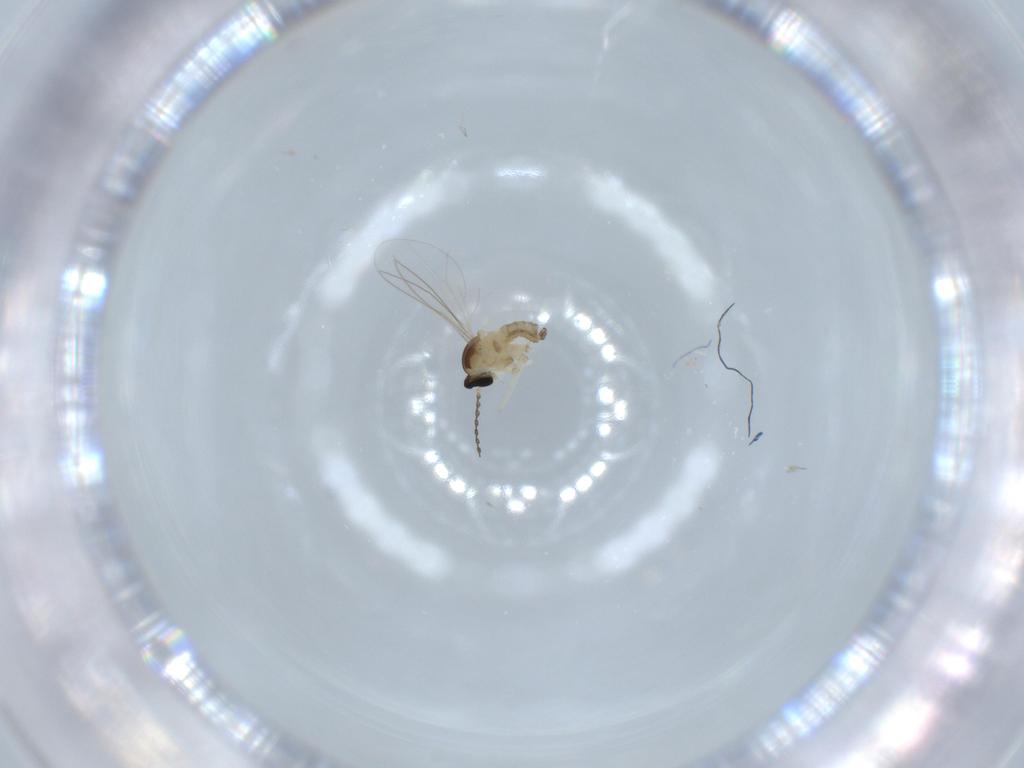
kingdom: Animalia
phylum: Arthropoda
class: Insecta
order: Diptera
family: Cecidomyiidae
